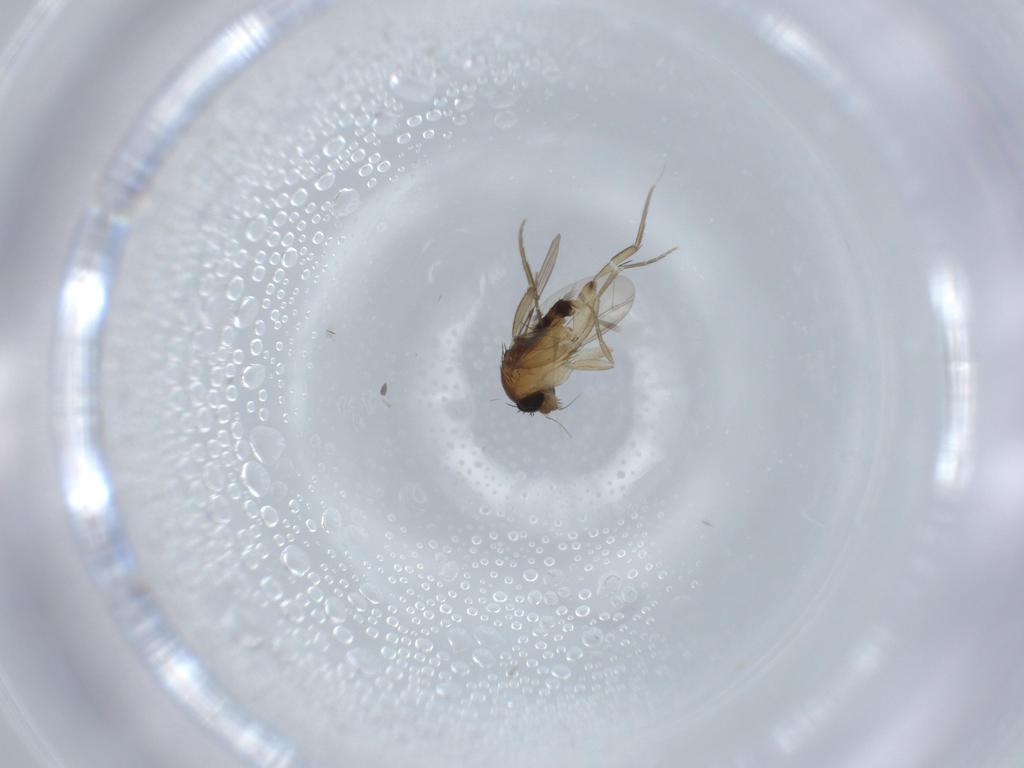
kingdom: Animalia
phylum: Arthropoda
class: Insecta
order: Diptera
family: Phoridae
